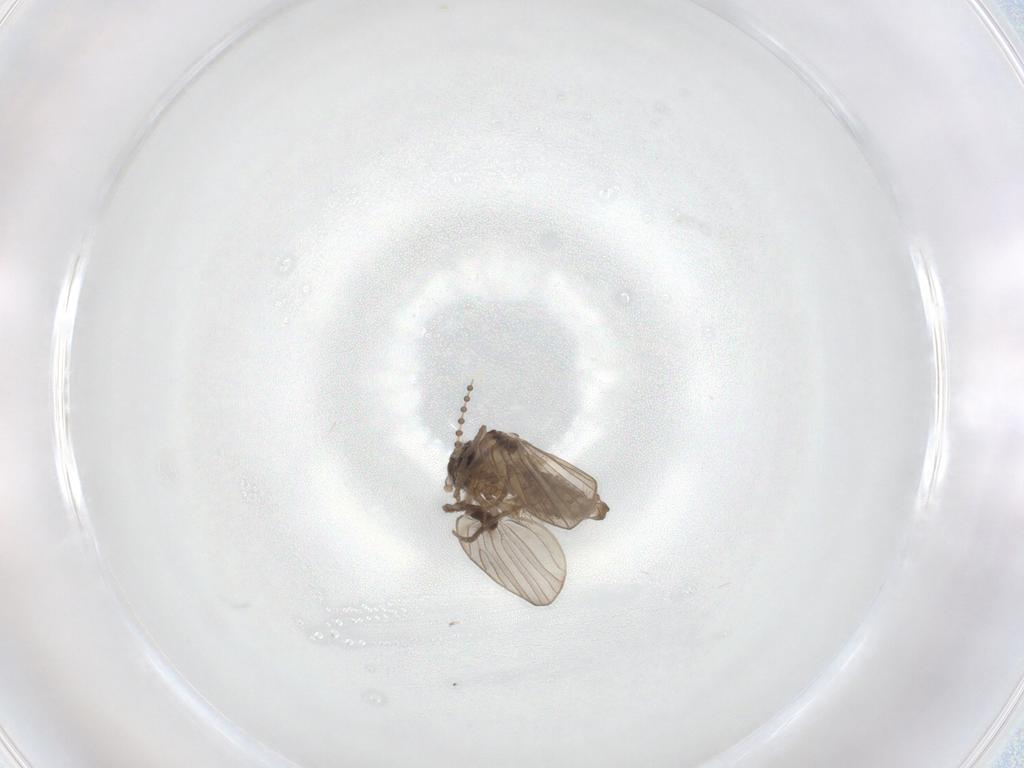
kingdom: Animalia
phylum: Arthropoda
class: Insecta
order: Diptera
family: Psychodidae
